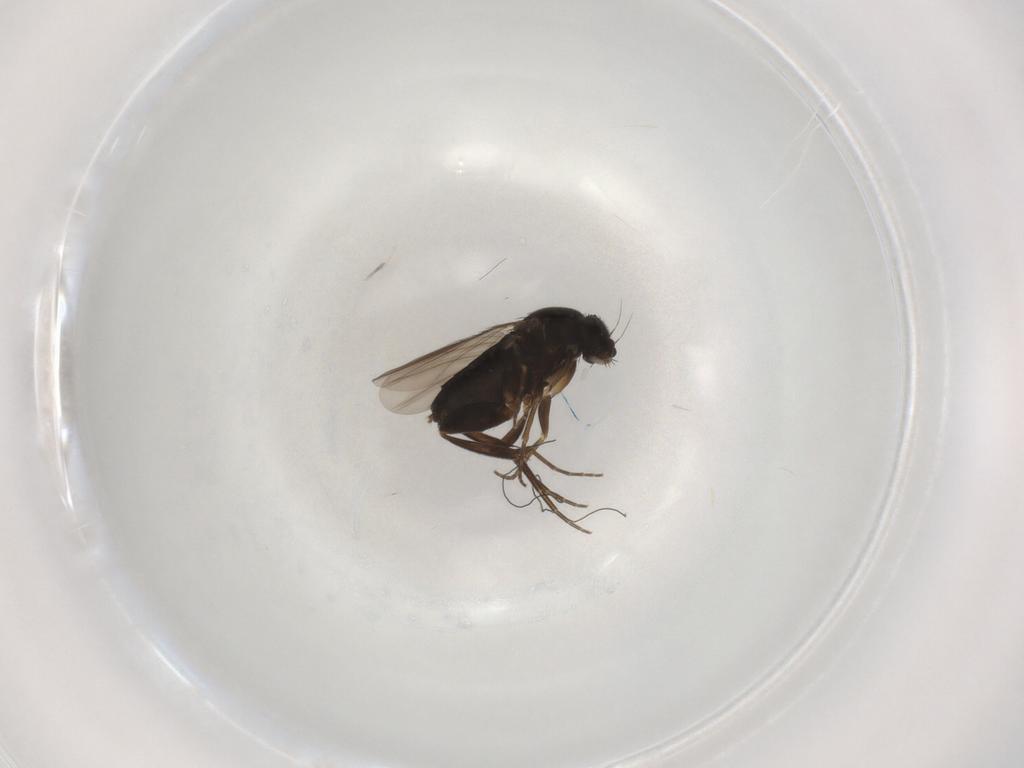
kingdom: Animalia
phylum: Arthropoda
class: Insecta
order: Diptera
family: Phoridae
